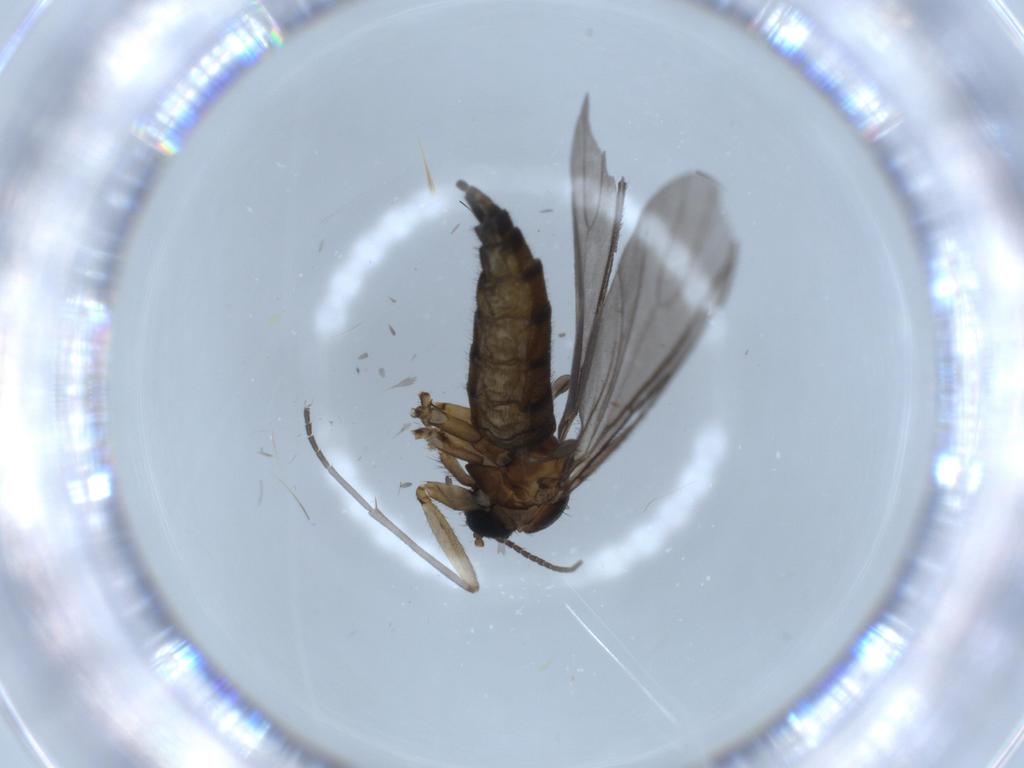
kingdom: Animalia
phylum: Arthropoda
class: Insecta
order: Diptera
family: Sciaridae
